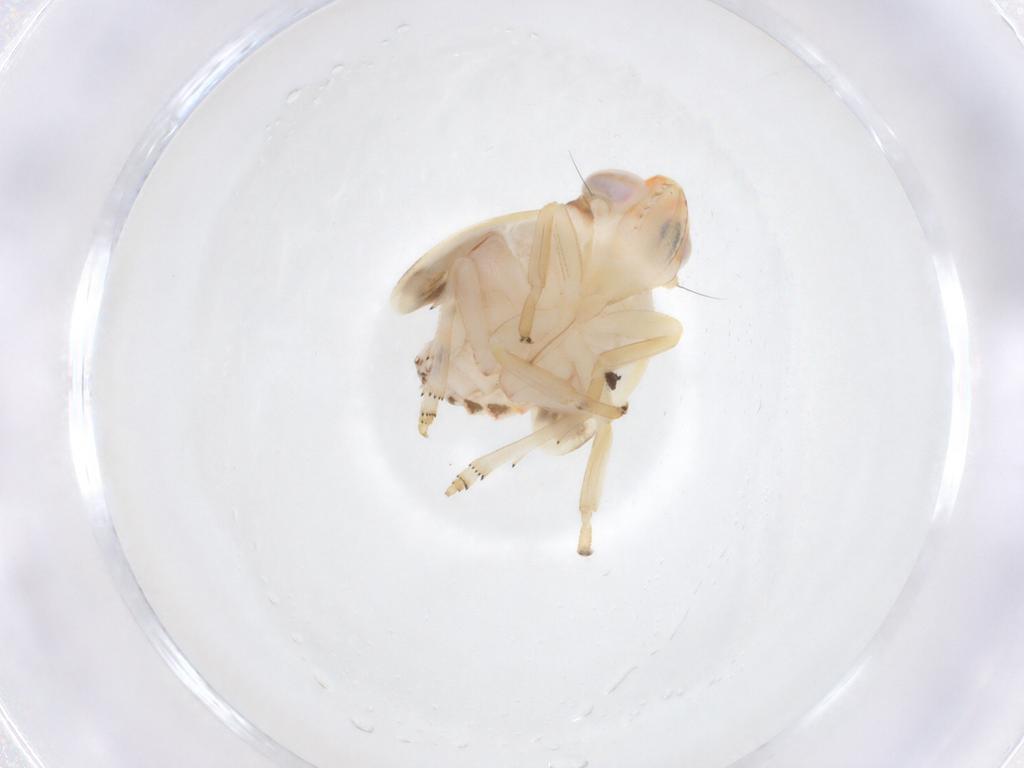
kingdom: Animalia
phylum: Arthropoda
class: Insecta
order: Hemiptera
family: Nogodinidae
